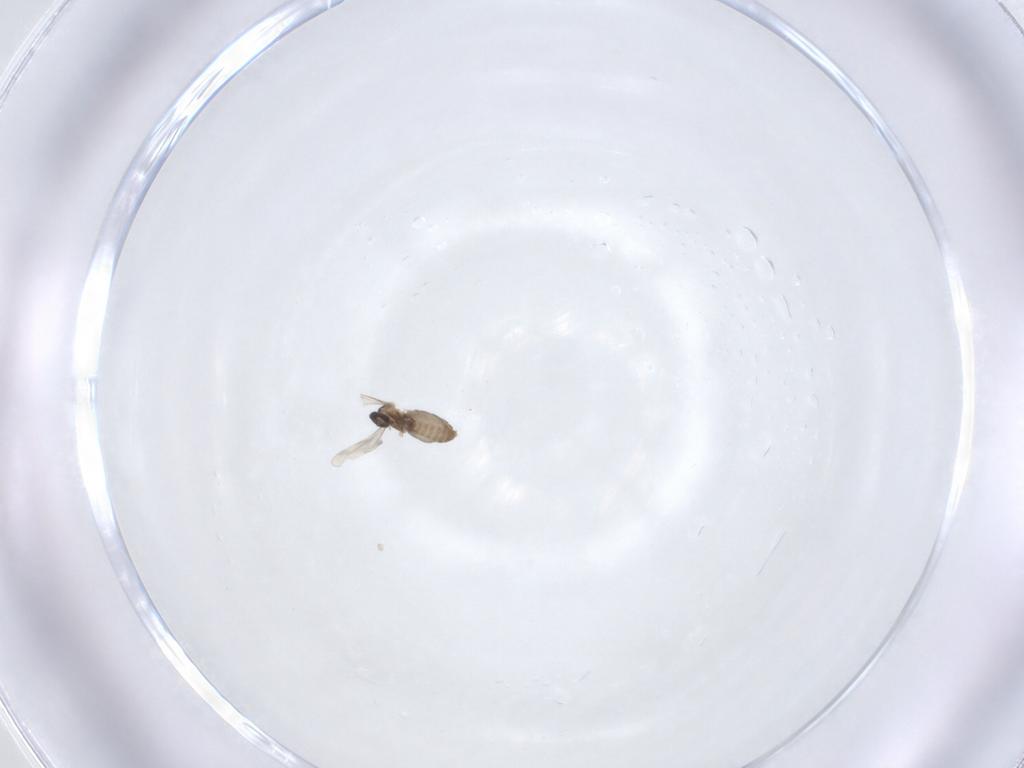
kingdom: Animalia
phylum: Arthropoda
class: Insecta
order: Diptera
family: Cecidomyiidae
